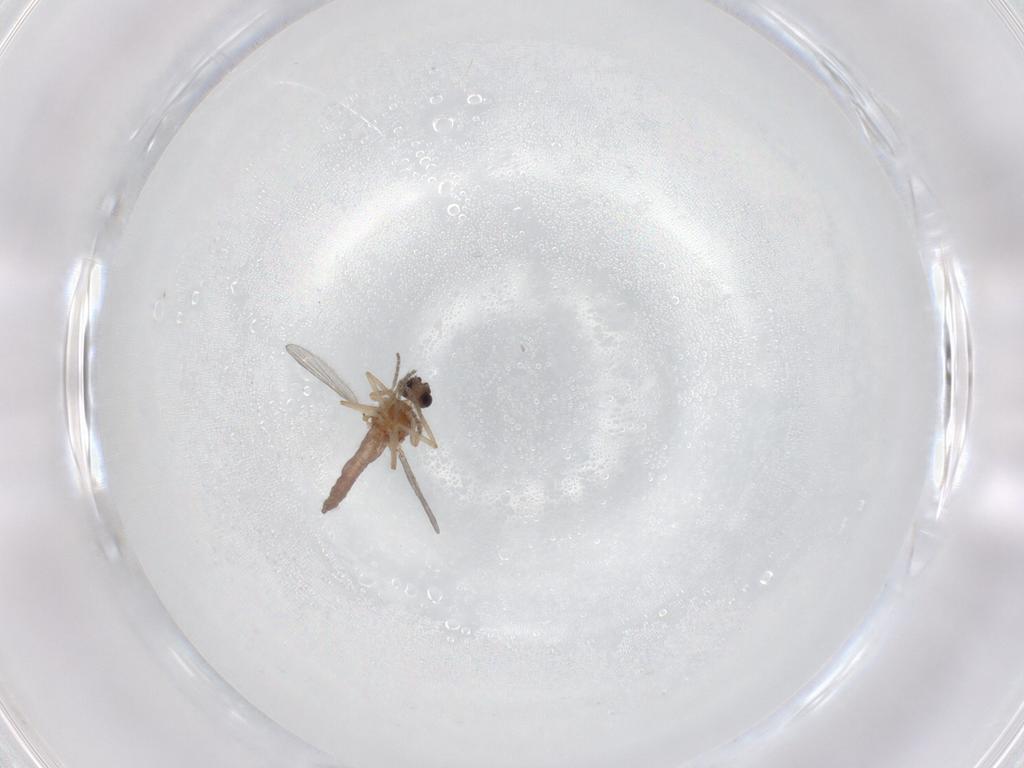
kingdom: Animalia
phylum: Arthropoda
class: Insecta
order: Diptera
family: Ceratopogonidae
